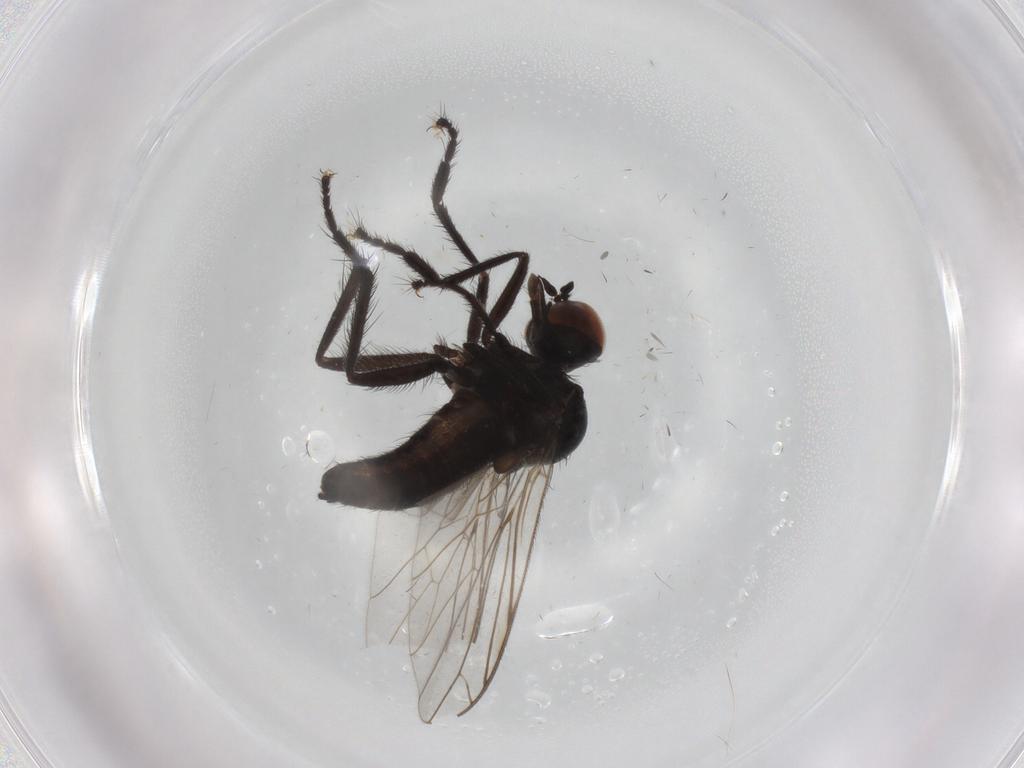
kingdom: Animalia
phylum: Arthropoda
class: Insecta
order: Diptera
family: Empididae
